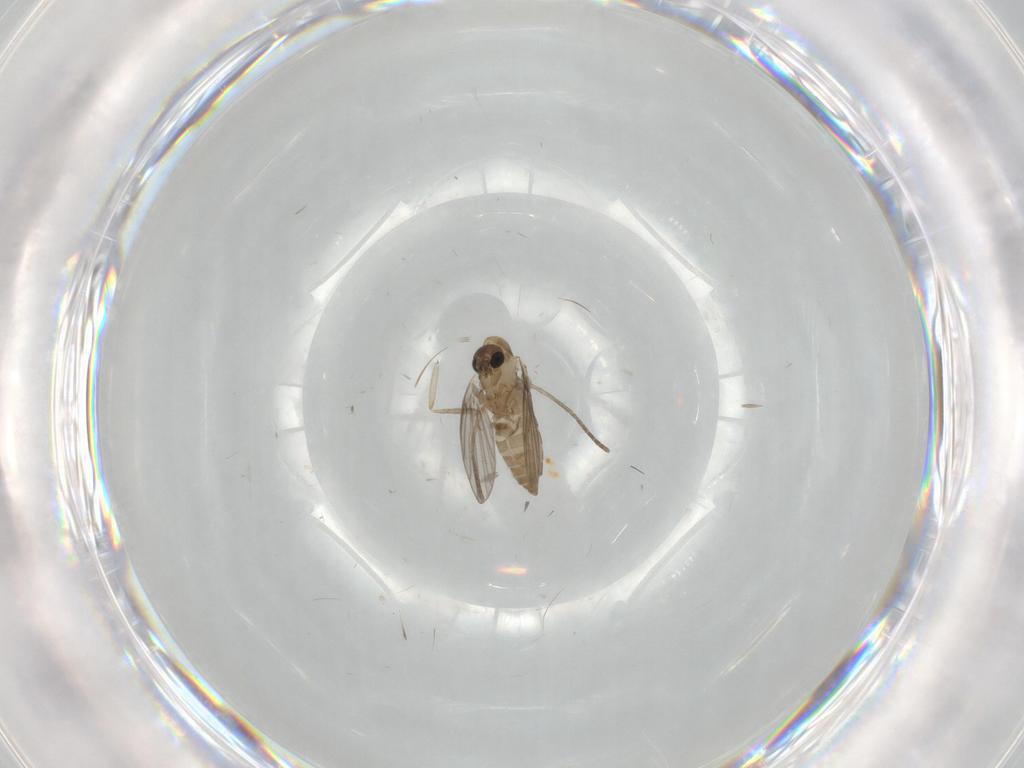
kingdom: Animalia
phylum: Arthropoda
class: Insecta
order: Diptera
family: Psychodidae
